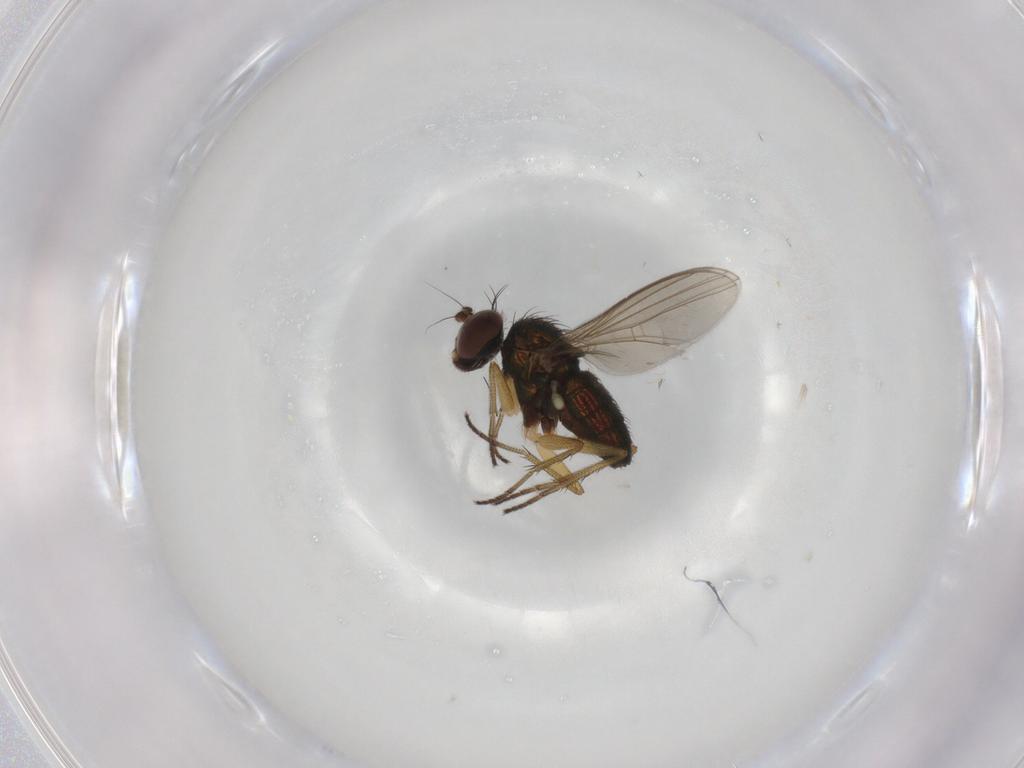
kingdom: Animalia
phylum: Arthropoda
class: Insecta
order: Diptera
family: Dolichopodidae
